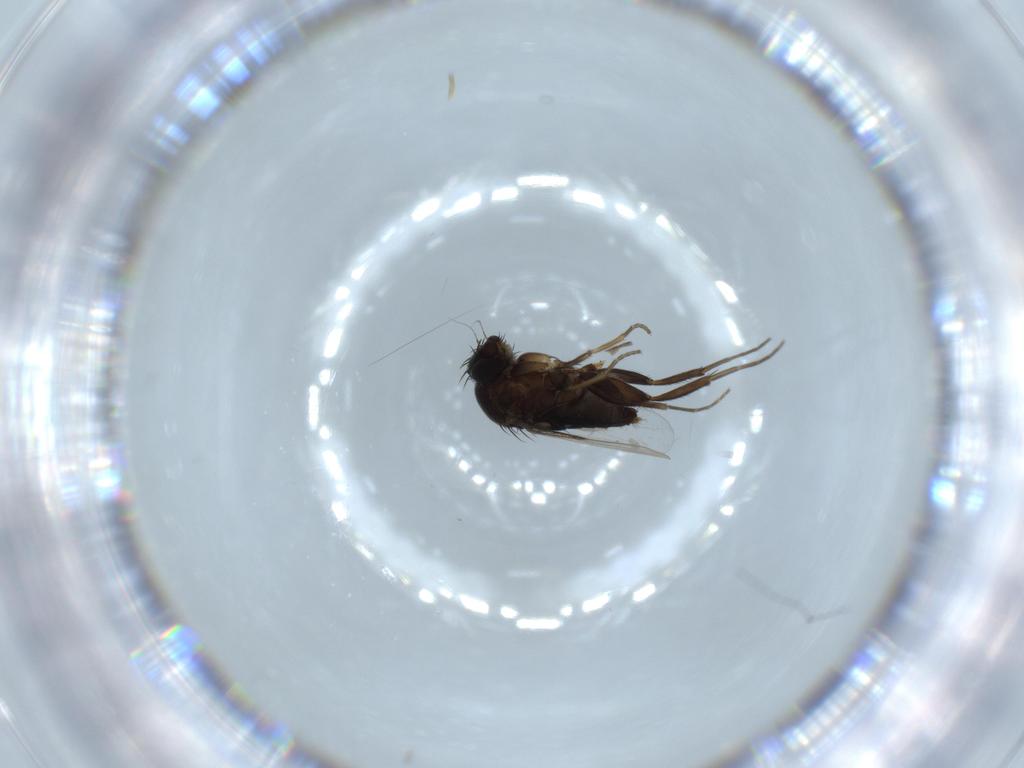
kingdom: Animalia
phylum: Arthropoda
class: Insecta
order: Diptera
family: Phoridae
